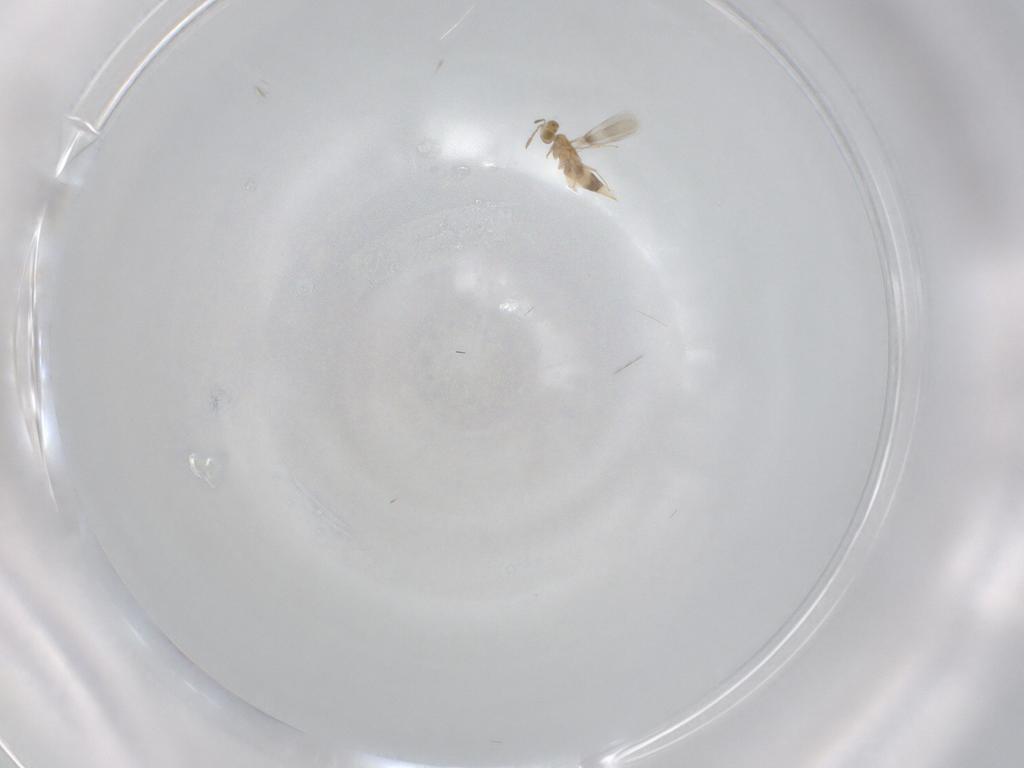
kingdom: Animalia
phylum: Arthropoda
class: Insecta
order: Hymenoptera
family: Aphelinidae
